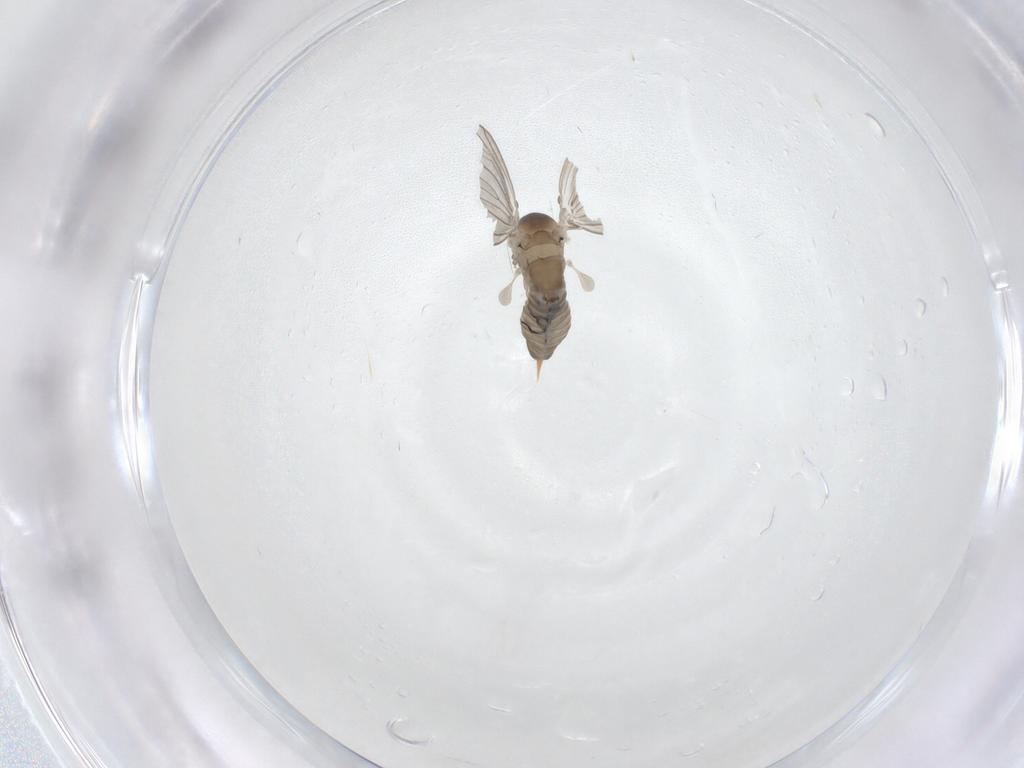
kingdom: Animalia
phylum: Arthropoda
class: Insecta
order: Diptera
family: Psychodidae
